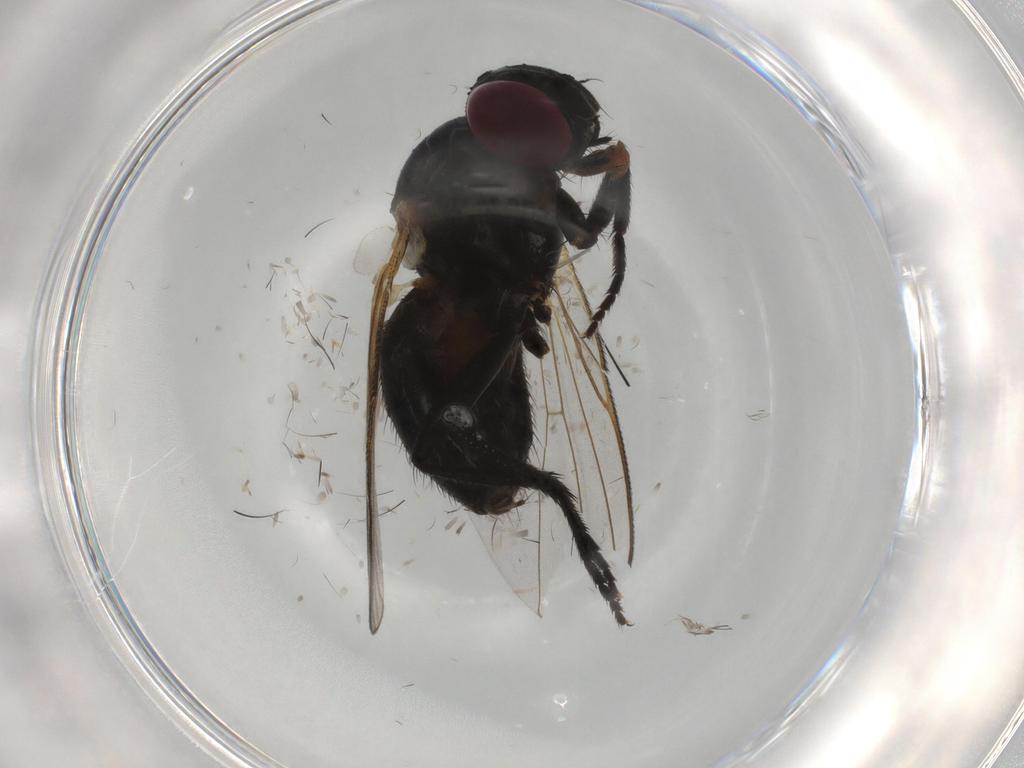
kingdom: Animalia
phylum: Arthropoda
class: Insecta
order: Diptera
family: Fannia
